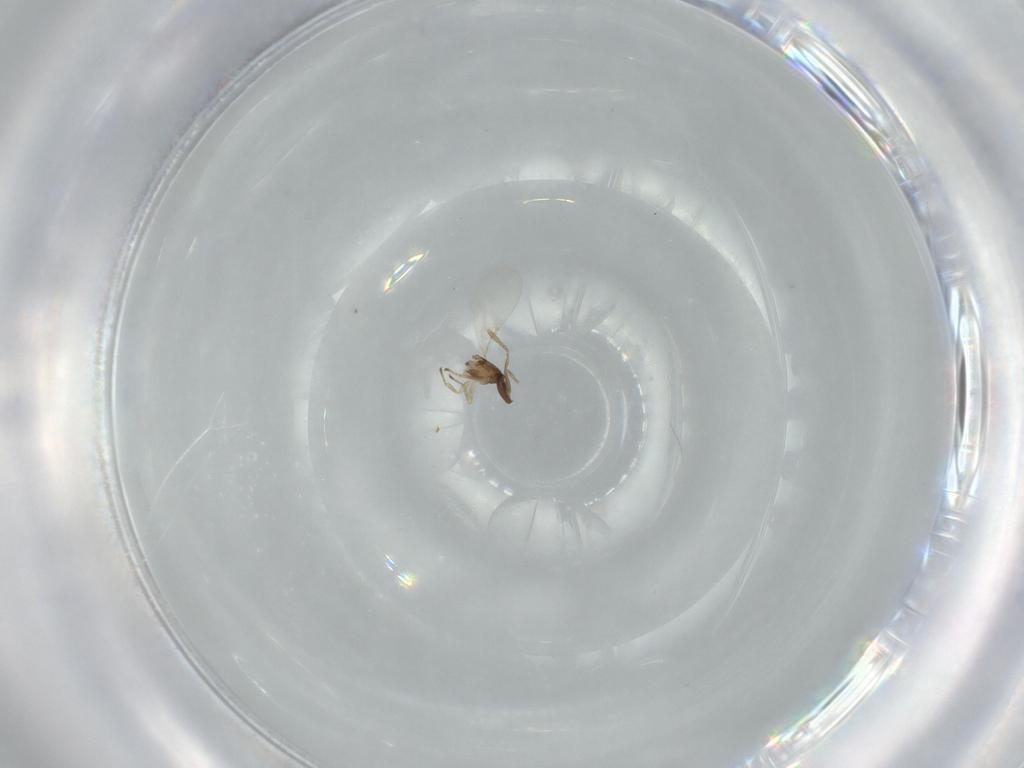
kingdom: Animalia
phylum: Arthropoda
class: Insecta
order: Hymenoptera
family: Encyrtidae
